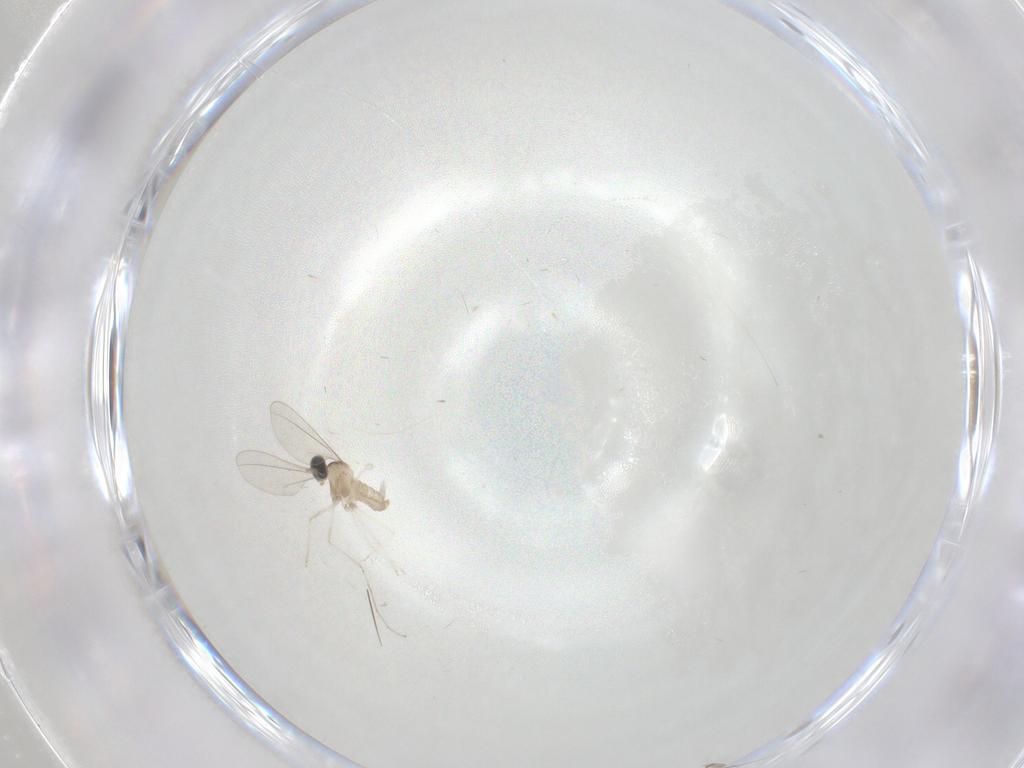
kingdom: Animalia
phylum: Arthropoda
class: Insecta
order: Diptera
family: Cecidomyiidae
